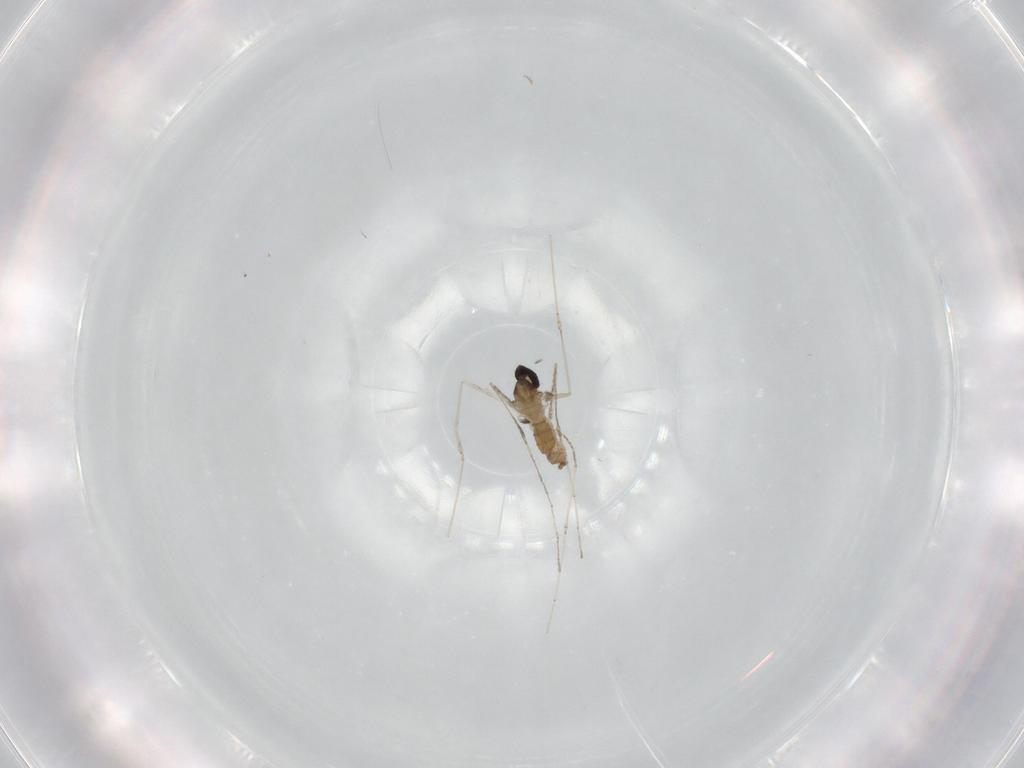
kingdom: Animalia
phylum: Arthropoda
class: Insecta
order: Diptera
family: Cecidomyiidae
